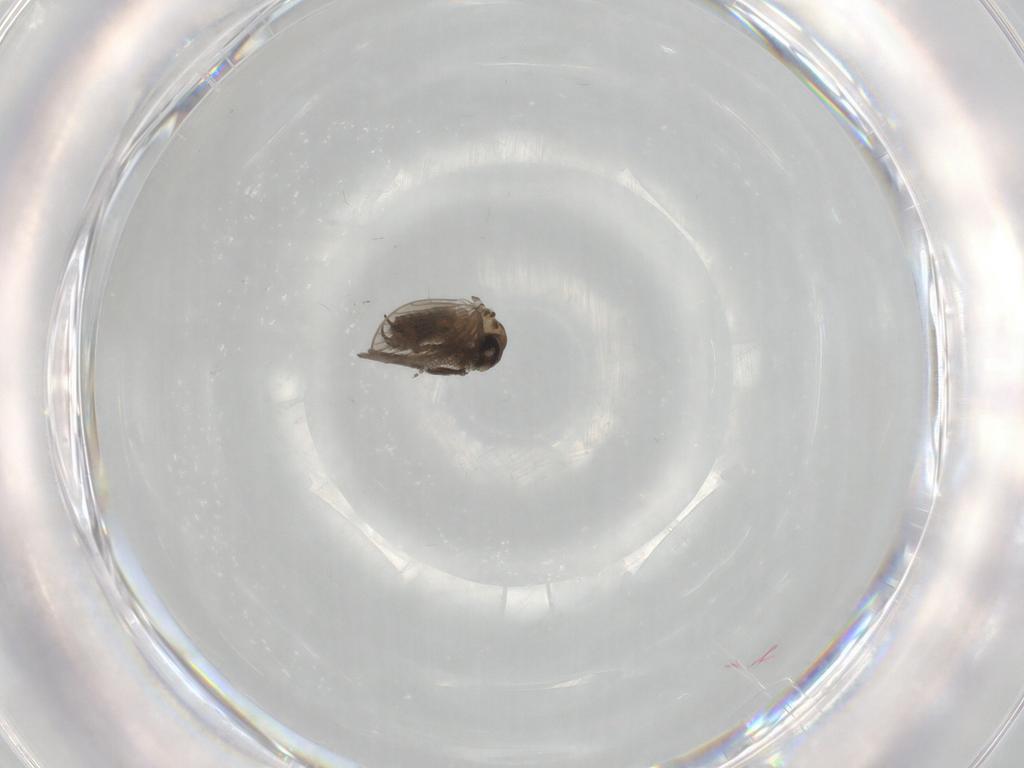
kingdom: Animalia
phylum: Arthropoda
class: Insecta
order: Diptera
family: Psychodidae
